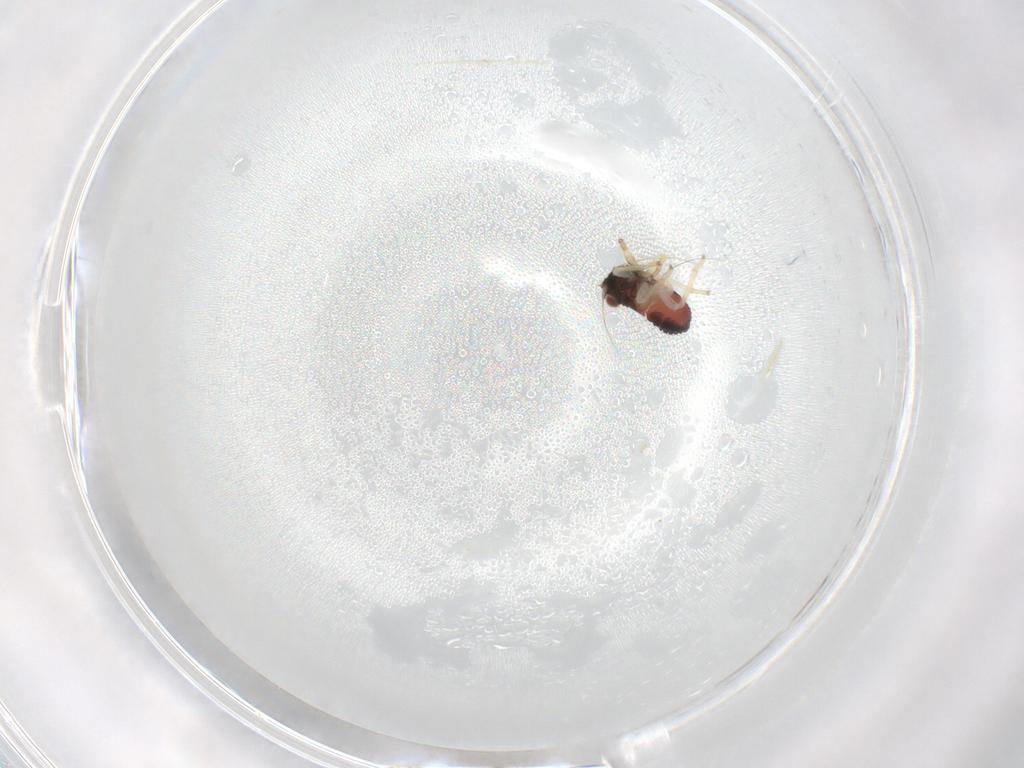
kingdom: Animalia
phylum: Arthropoda
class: Insecta
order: Hemiptera
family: Cicadellidae
